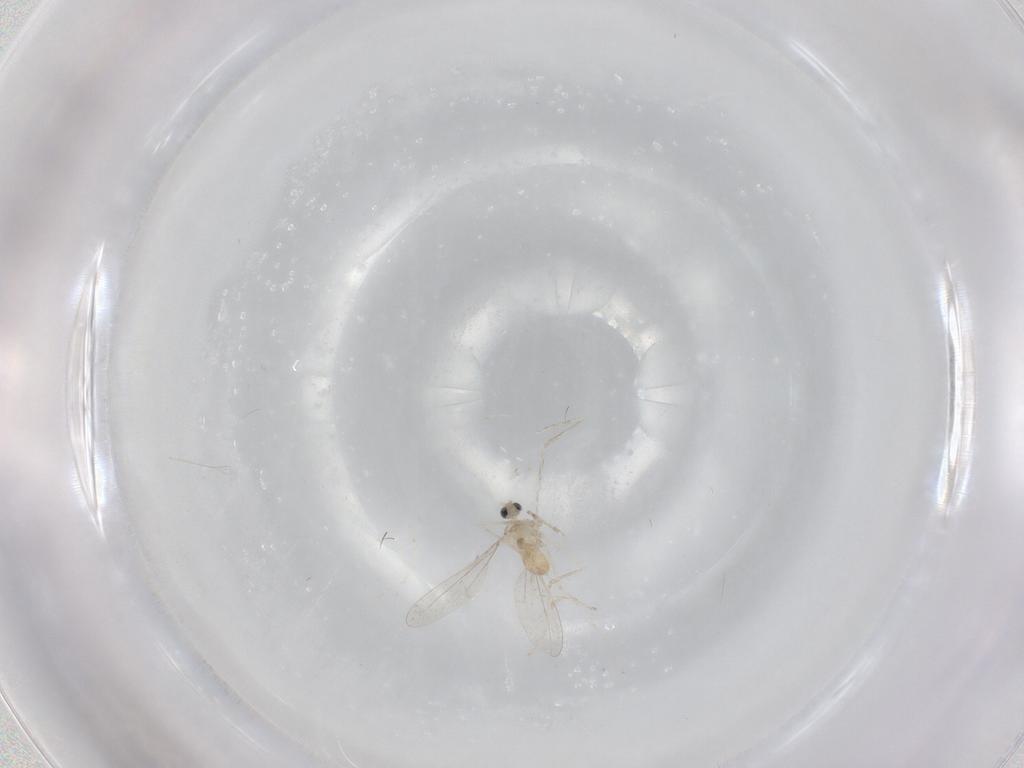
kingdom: Animalia
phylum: Arthropoda
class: Insecta
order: Diptera
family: Cecidomyiidae
